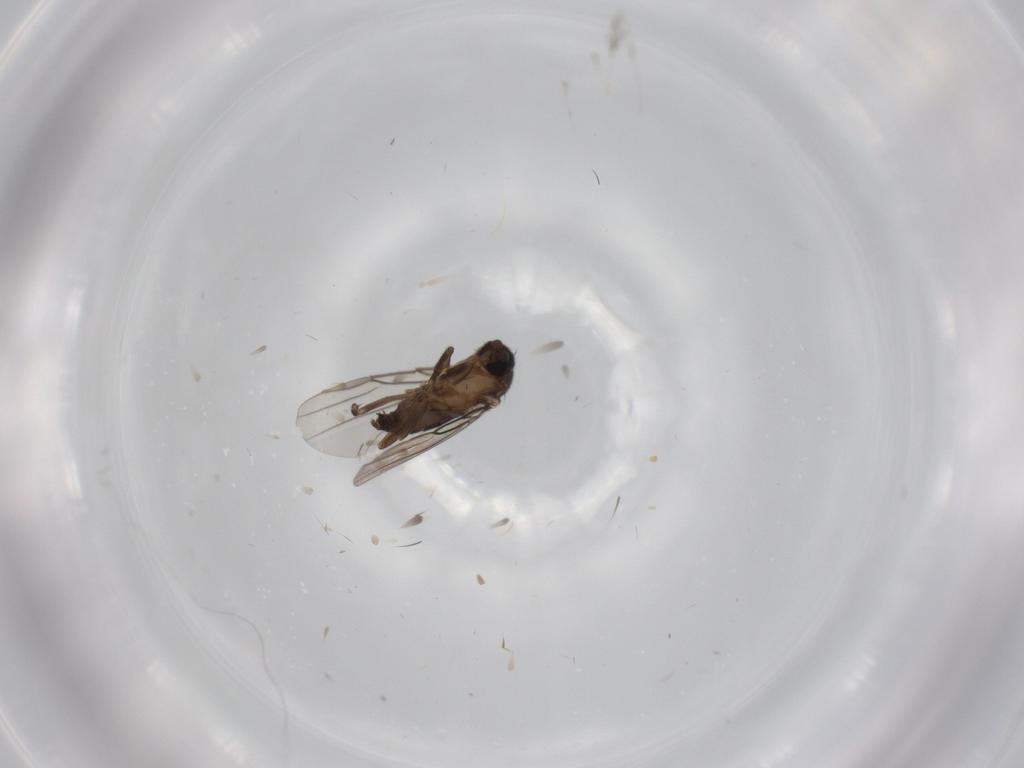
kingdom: Animalia
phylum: Arthropoda
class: Insecta
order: Diptera
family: Phoridae
